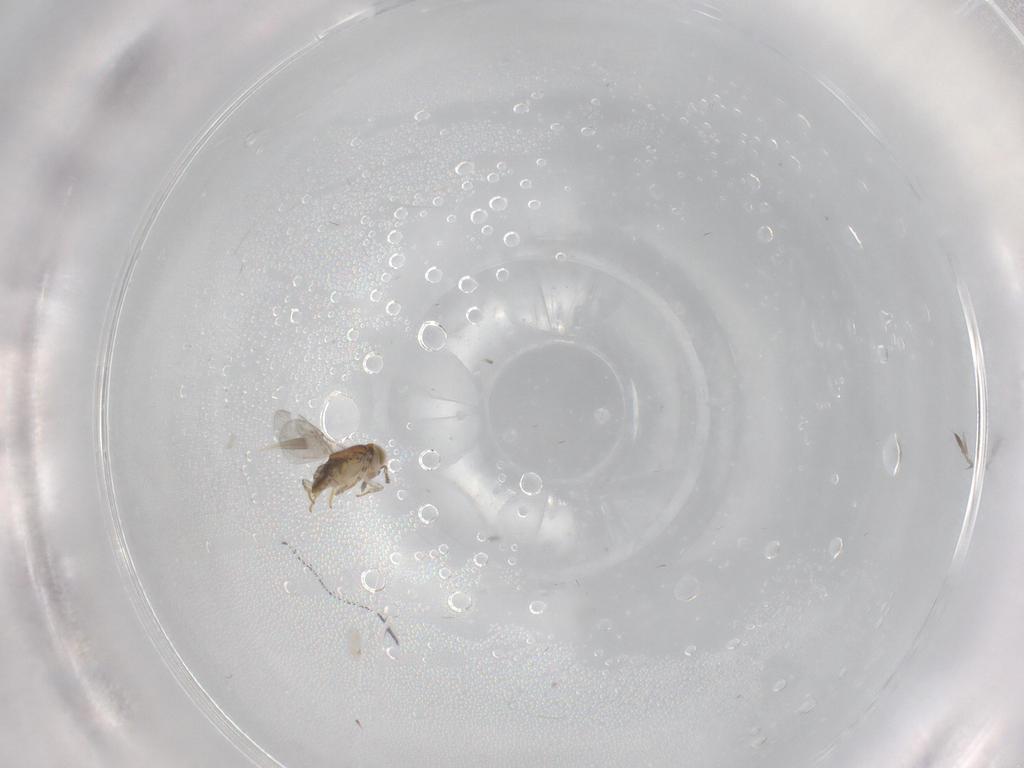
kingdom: Animalia
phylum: Arthropoda
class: Insecta
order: Hymenoptera
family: Encyrtidae
